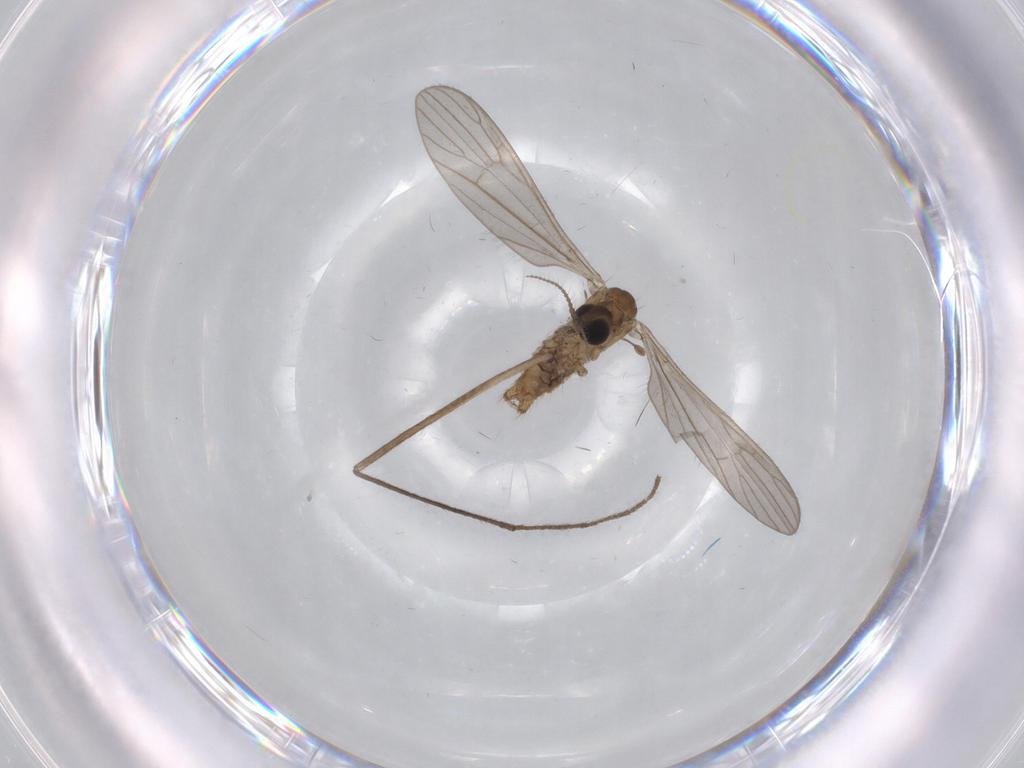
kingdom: Animalia
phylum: Arthropoda
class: Insecta
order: Diptera
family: Limoniidae
